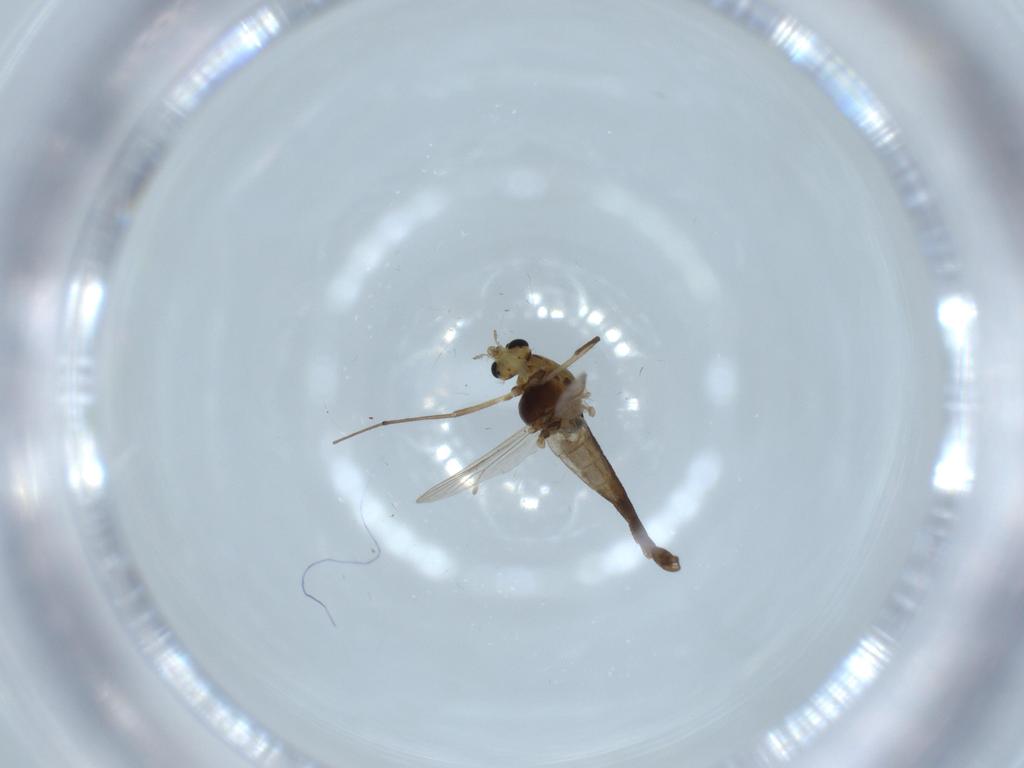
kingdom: Animalia
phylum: Arthropoda
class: Insecta
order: Diptera
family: Chironomidae
